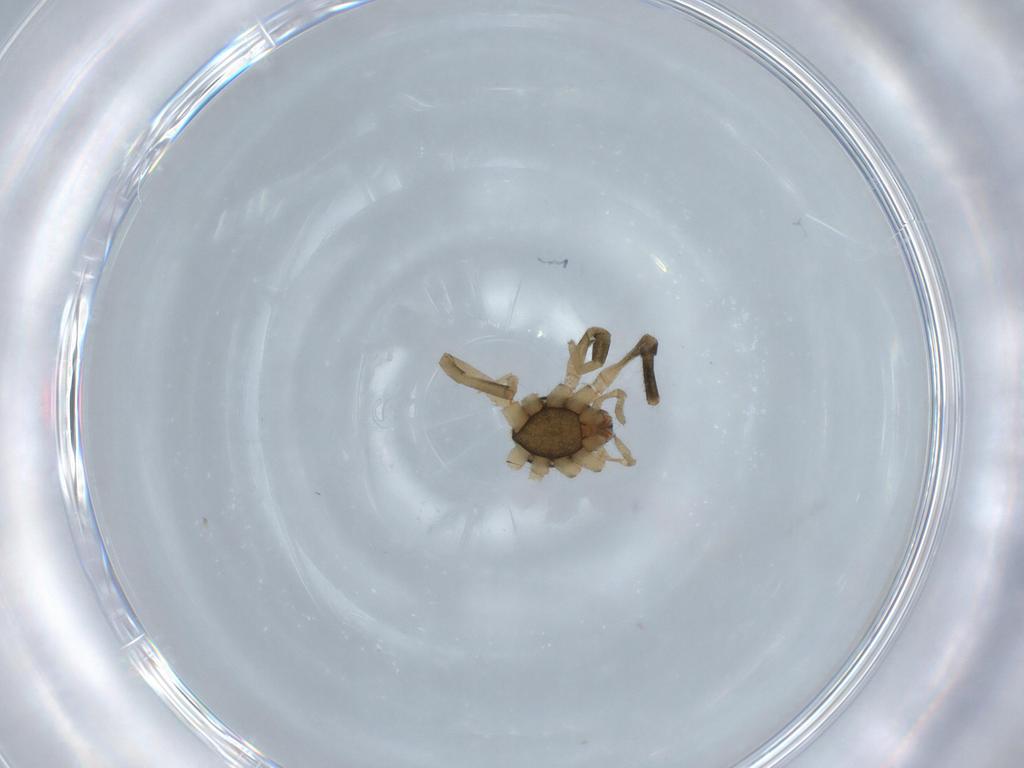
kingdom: Animalia
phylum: Arthropoda
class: Arachnida
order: Araneae
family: Gnaphosidae
